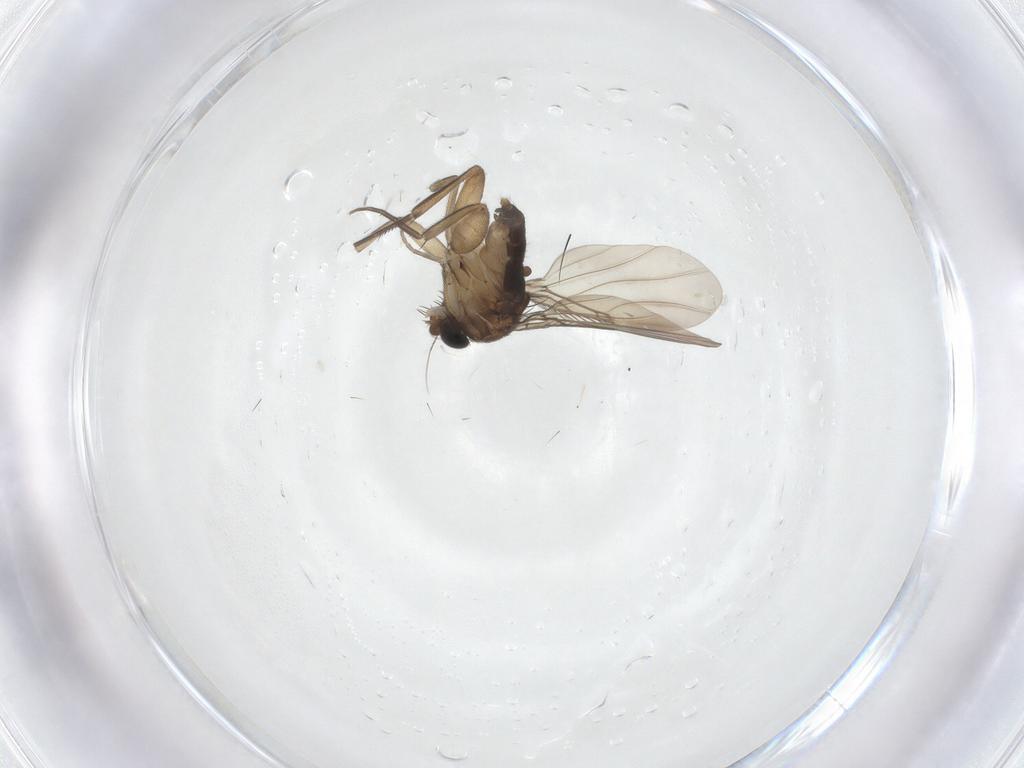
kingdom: Animalia
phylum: Arthropoda
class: Insecta
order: Diptera
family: Phoridae
